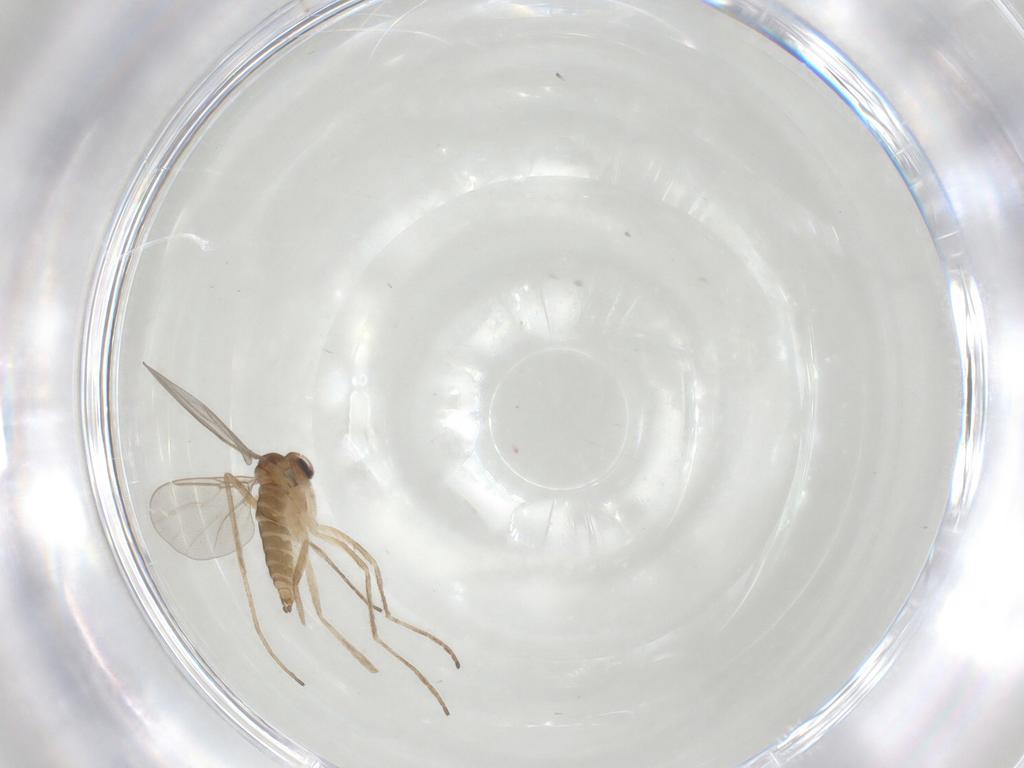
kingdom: Animalia
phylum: Arthropoda
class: Insecta
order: Diptera
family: Cecidomyiidae
